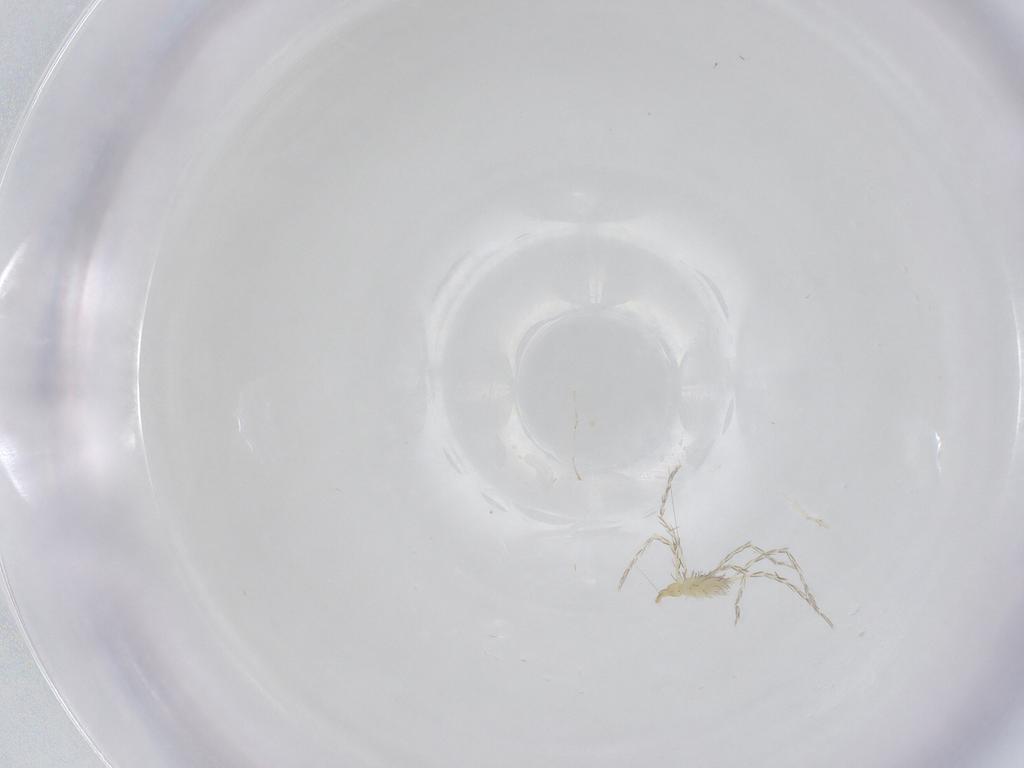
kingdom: Animalia
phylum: Arthropoda
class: Insecta
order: Diptera
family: Cecidomyiidae
